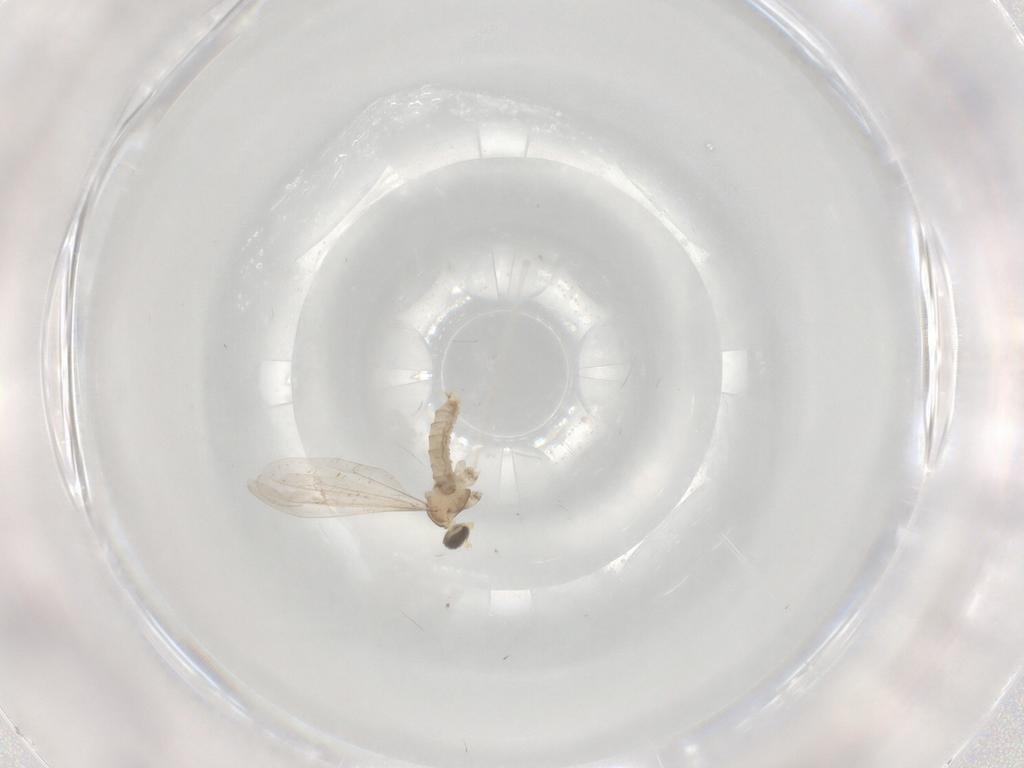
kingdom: Animalia
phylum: Arthropoda
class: Insecta
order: Diptera
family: Cecidomyiidae
